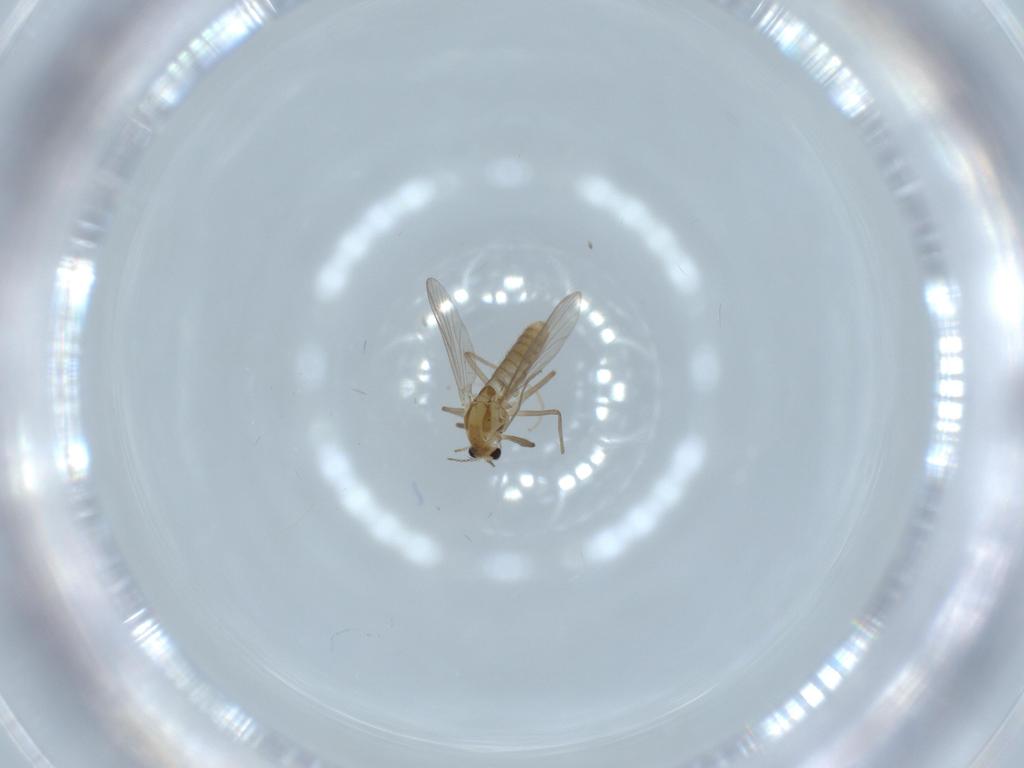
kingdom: Animalia
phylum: Arthropoda
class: Insecta
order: Diptera
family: Chironomidae
